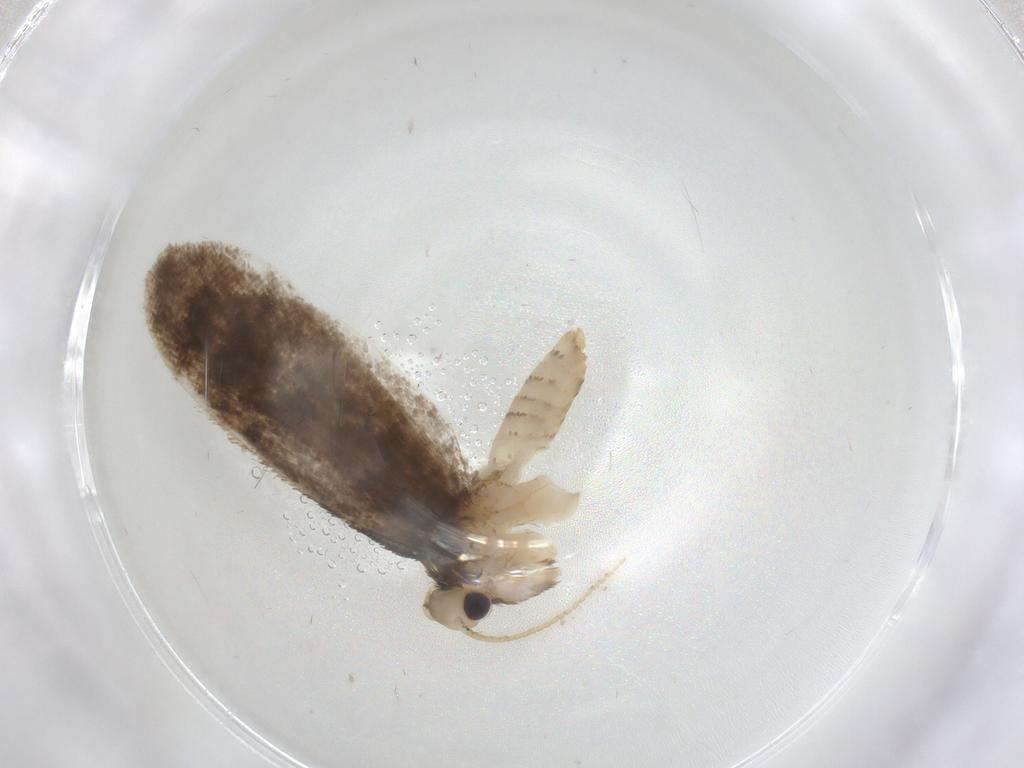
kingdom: Animalia
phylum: Arthropoda
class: Insecta
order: Lepidoptera
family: Psychidae
